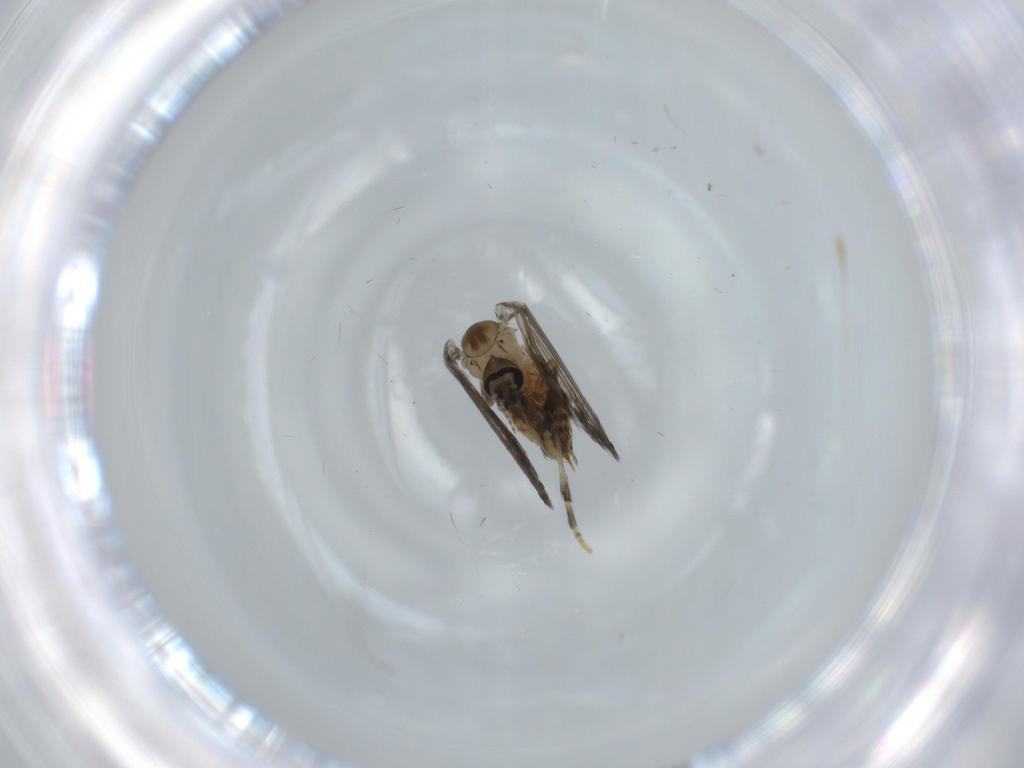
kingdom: Animalia
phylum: Arthropoda
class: Insecta
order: Diptera
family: Psychodidae
